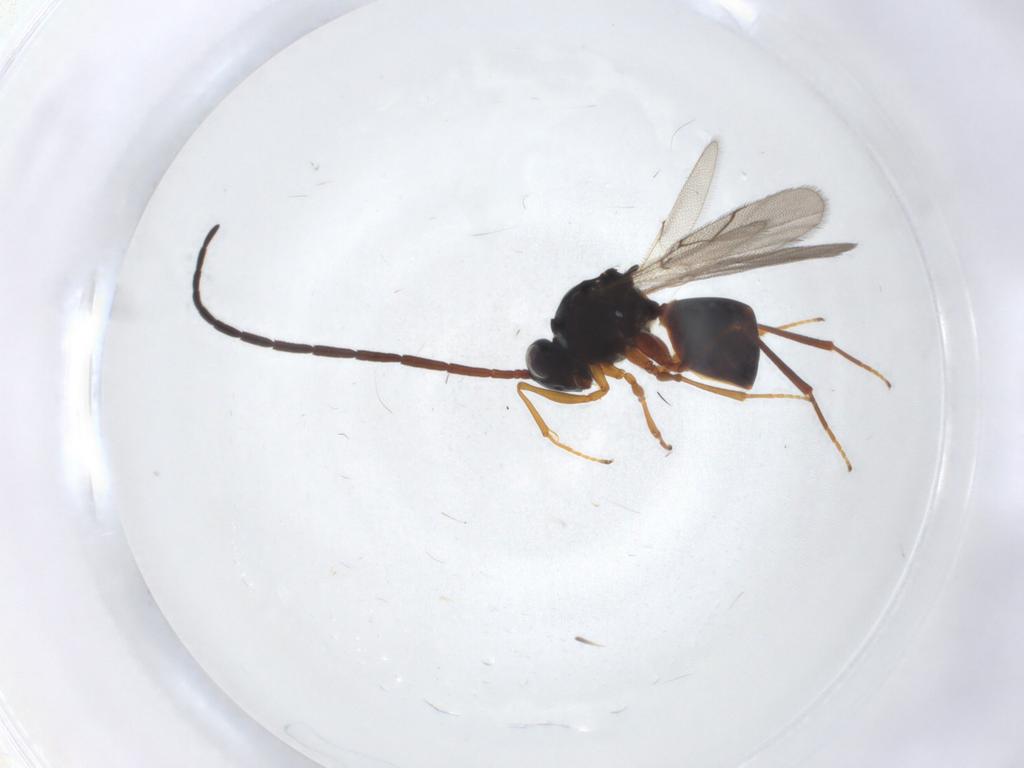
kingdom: Animalia
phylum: Arthropoda
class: Insecta
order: Hymenoptera
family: Figitidae
